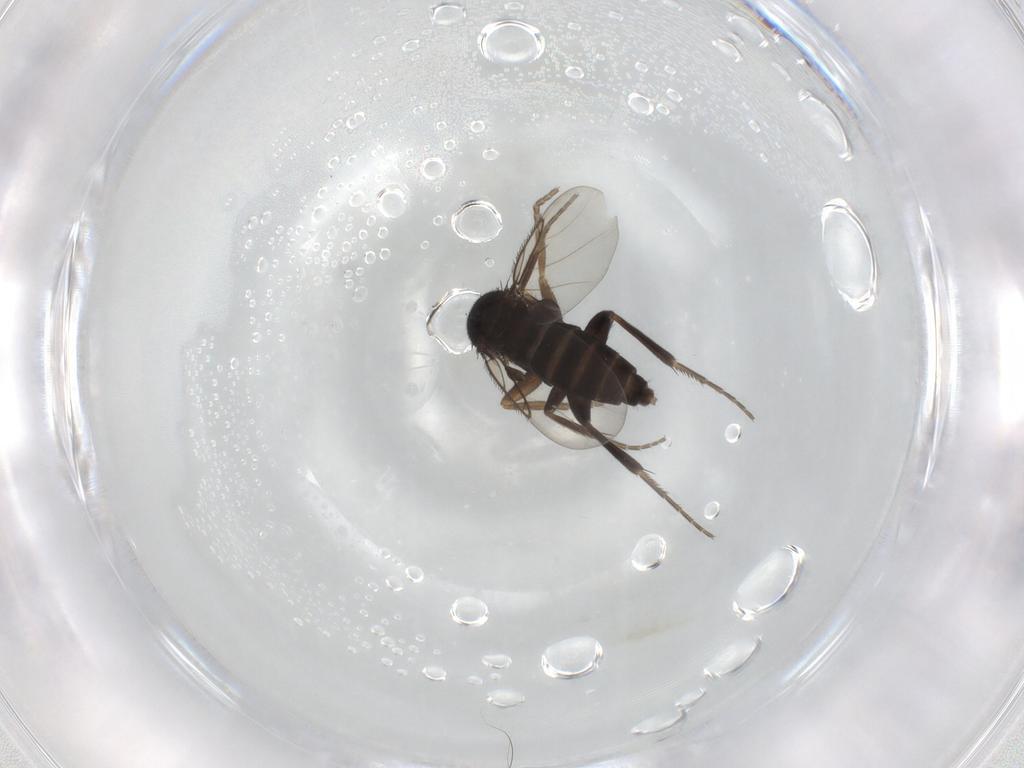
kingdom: Animalia
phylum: Arthropoda
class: Insecta
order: Diptera
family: Phoridae
